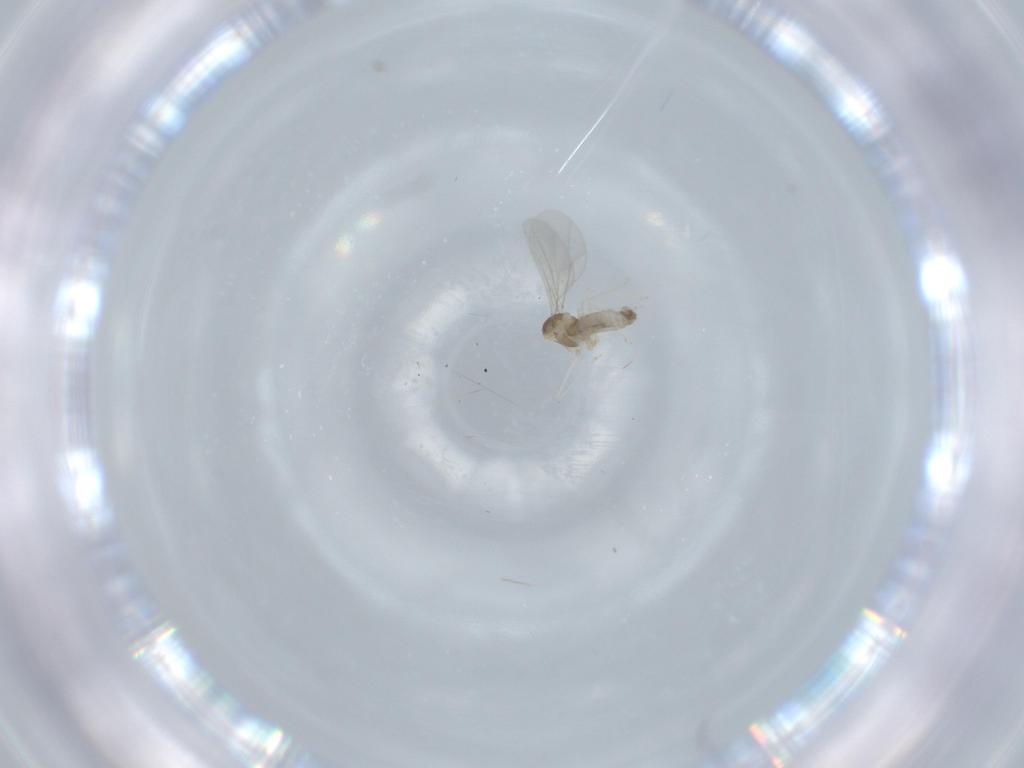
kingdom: Animalia
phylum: Arthropoda
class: Insecta
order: Diptera
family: Cecidomyiidae
